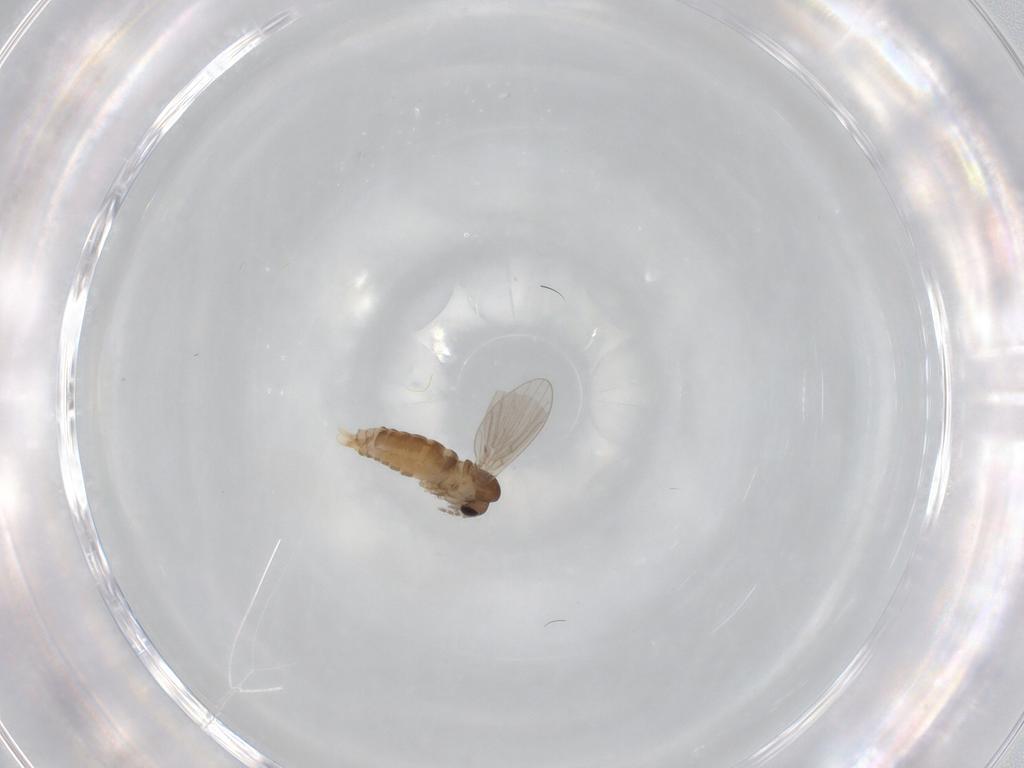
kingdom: Animalia
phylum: Arthropoda
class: Insecta
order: Diptera
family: Psychodidae
